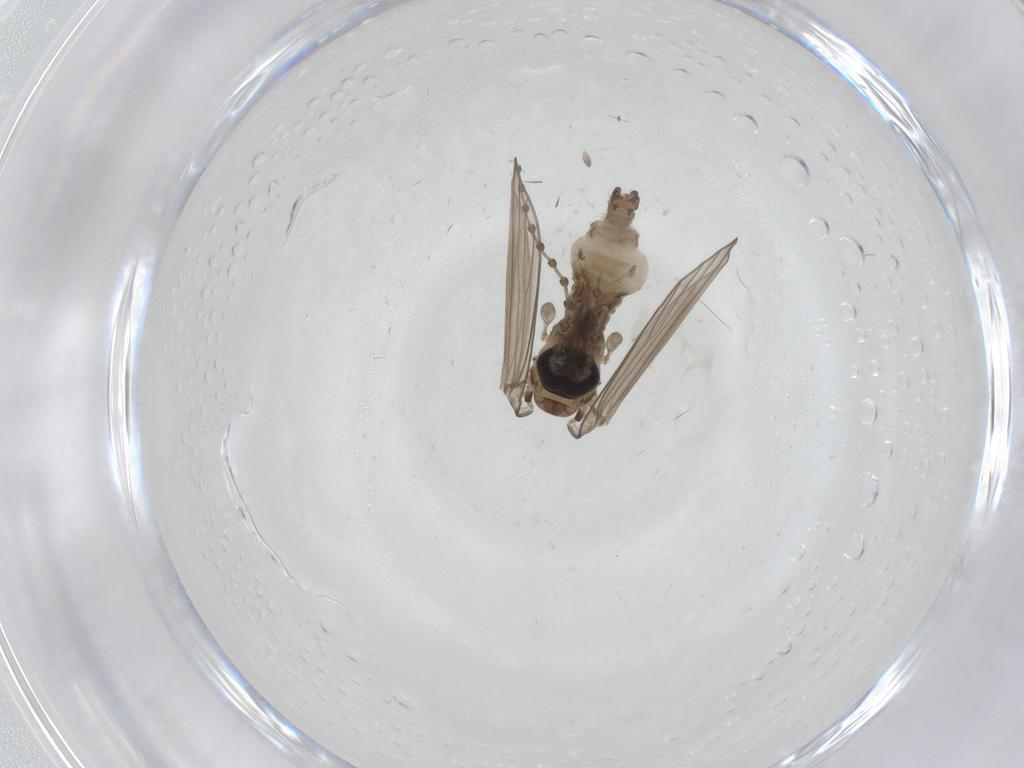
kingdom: Animalia
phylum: Arthropoda
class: Insecta
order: Diptera
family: Psychodidae
